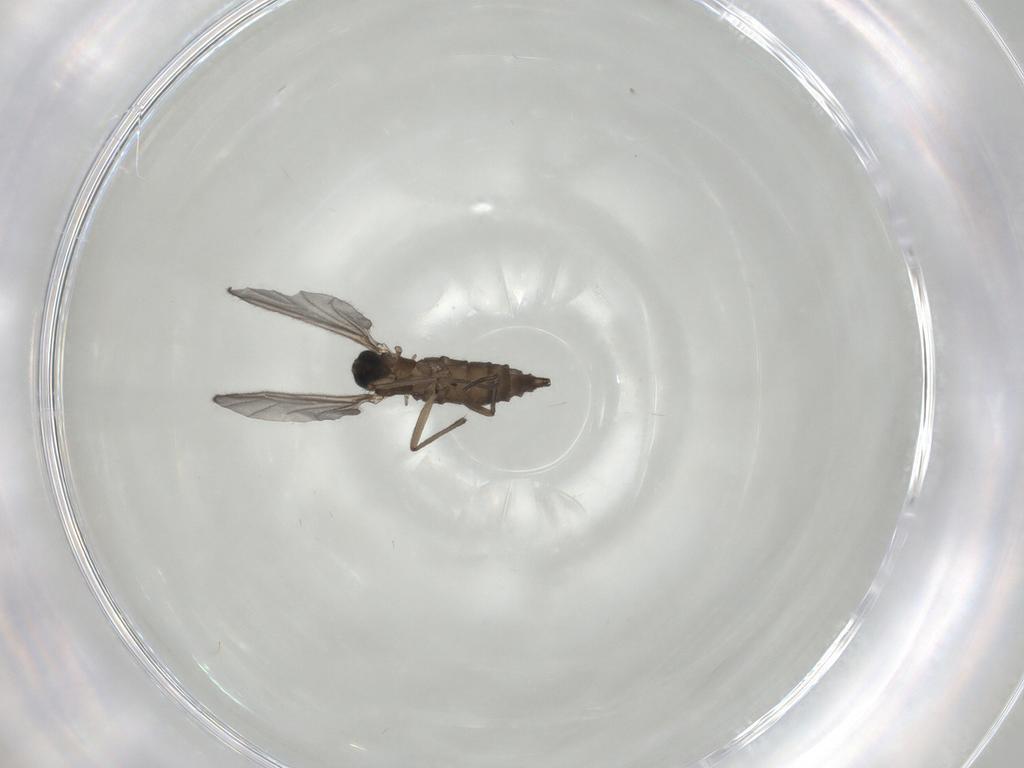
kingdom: Animalia
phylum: Arthropoda
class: Insecta
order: Diptera
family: Sciaridae
